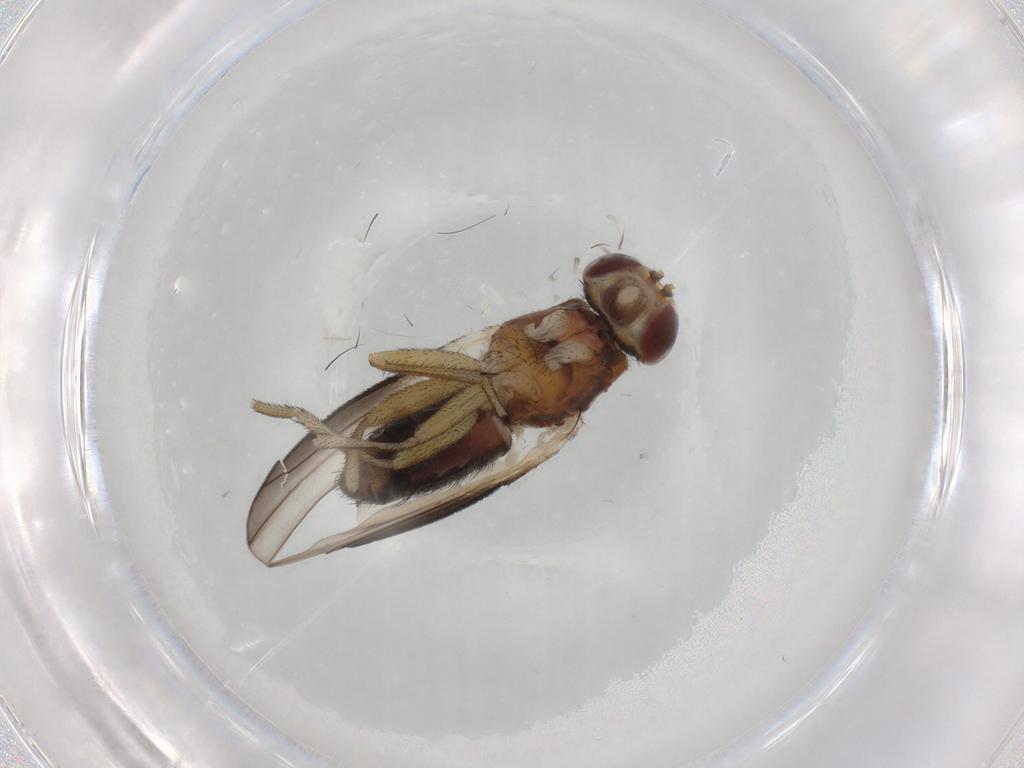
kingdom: Animalia
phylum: Arthropoda
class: Insecta
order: Diptera
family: Heleomyzidae
